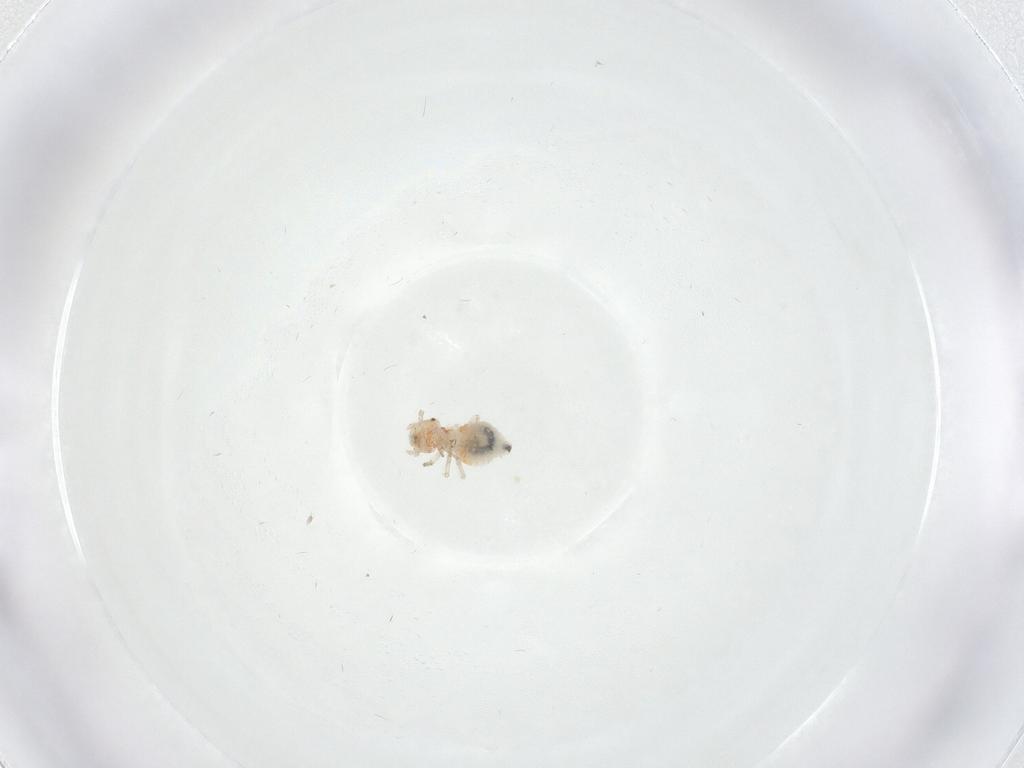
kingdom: Animalia
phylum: Arthropoda
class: Insecta
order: Psocodea
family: Peripsocidae
